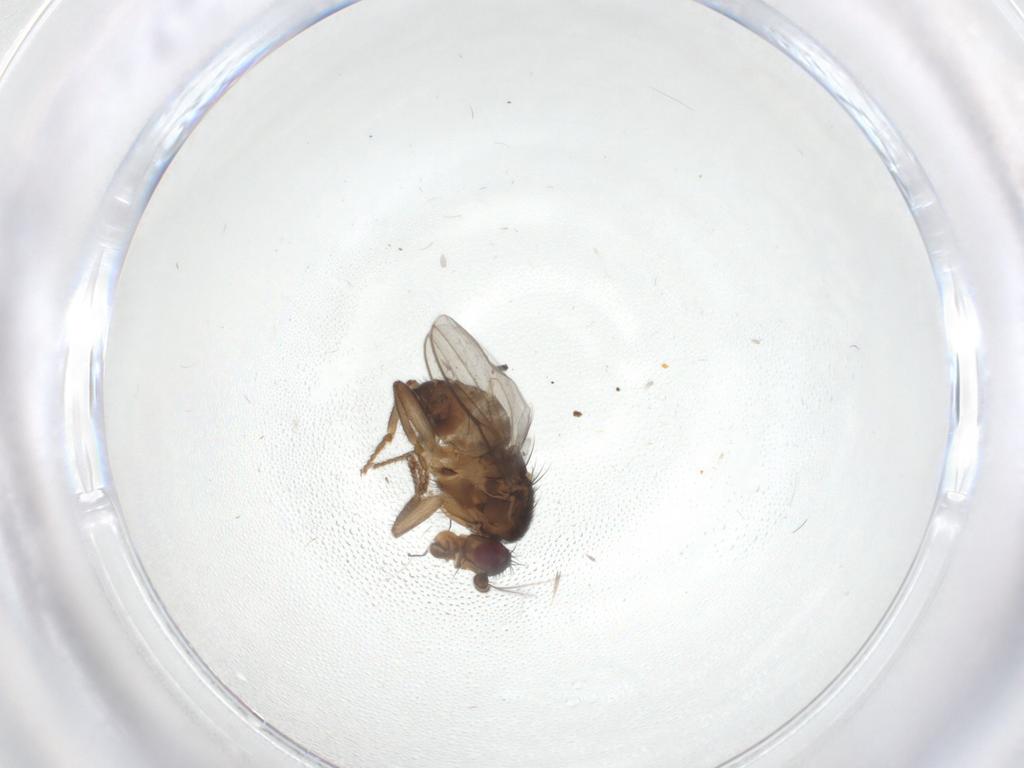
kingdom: Animalia
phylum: Arthropoda
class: Insecta
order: Diptera
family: Sphaeroceridae
